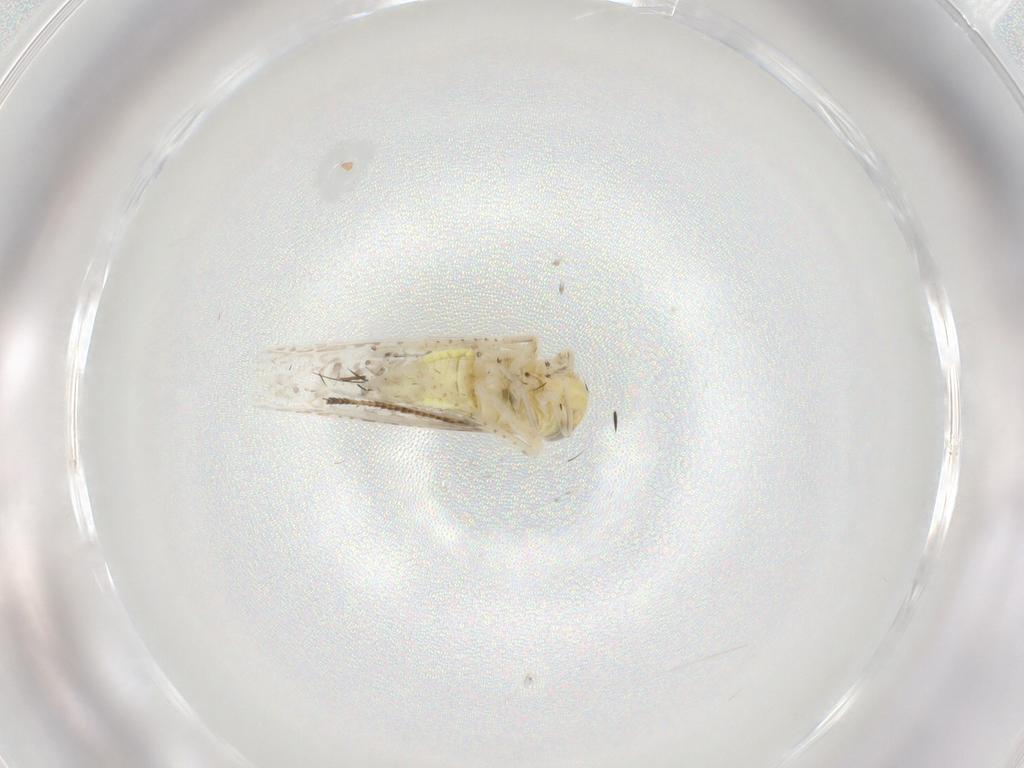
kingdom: Animalia
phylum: Arthropoda
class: Insecta
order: Hemiptera
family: Cicadellidae
